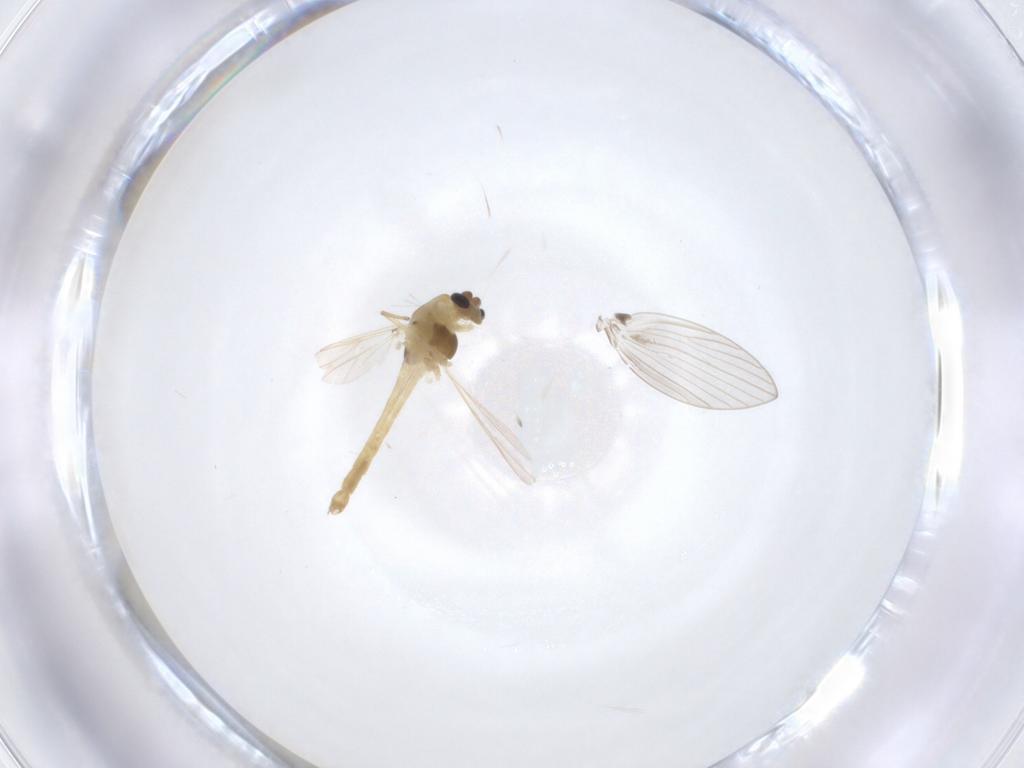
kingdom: Animalia
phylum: Arthropoda
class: Insecta
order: Diptera
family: Chironomidae
